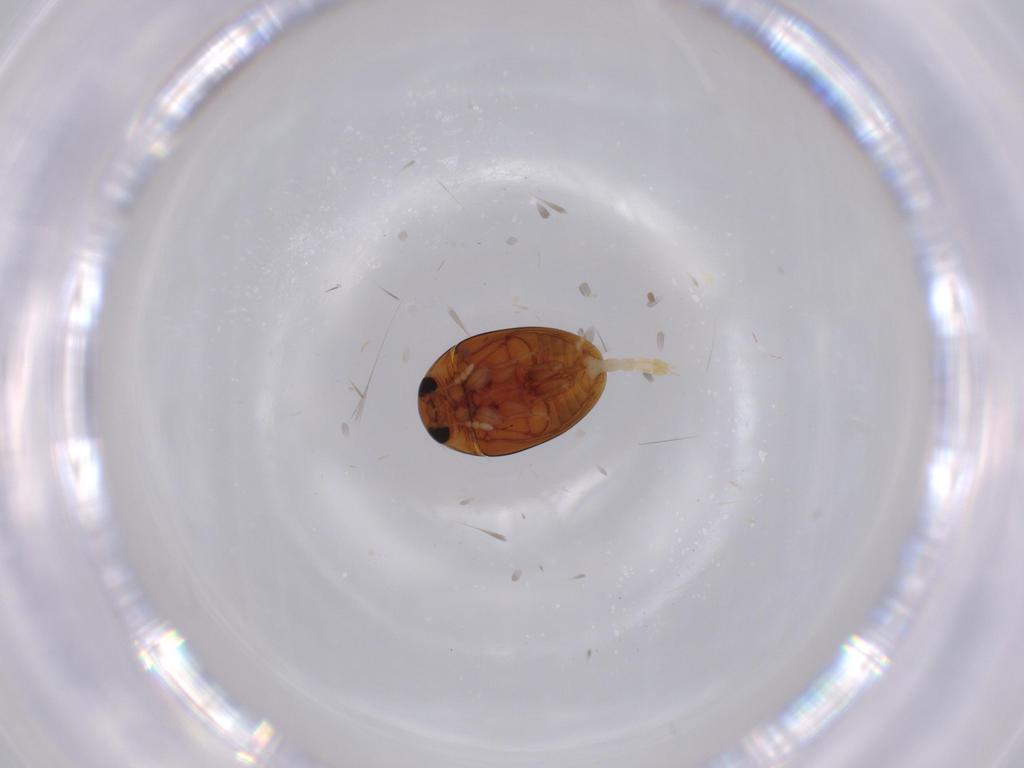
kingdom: Animalia
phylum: Arthropoda
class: Insecta
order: Coleoptera
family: Phalacridae
